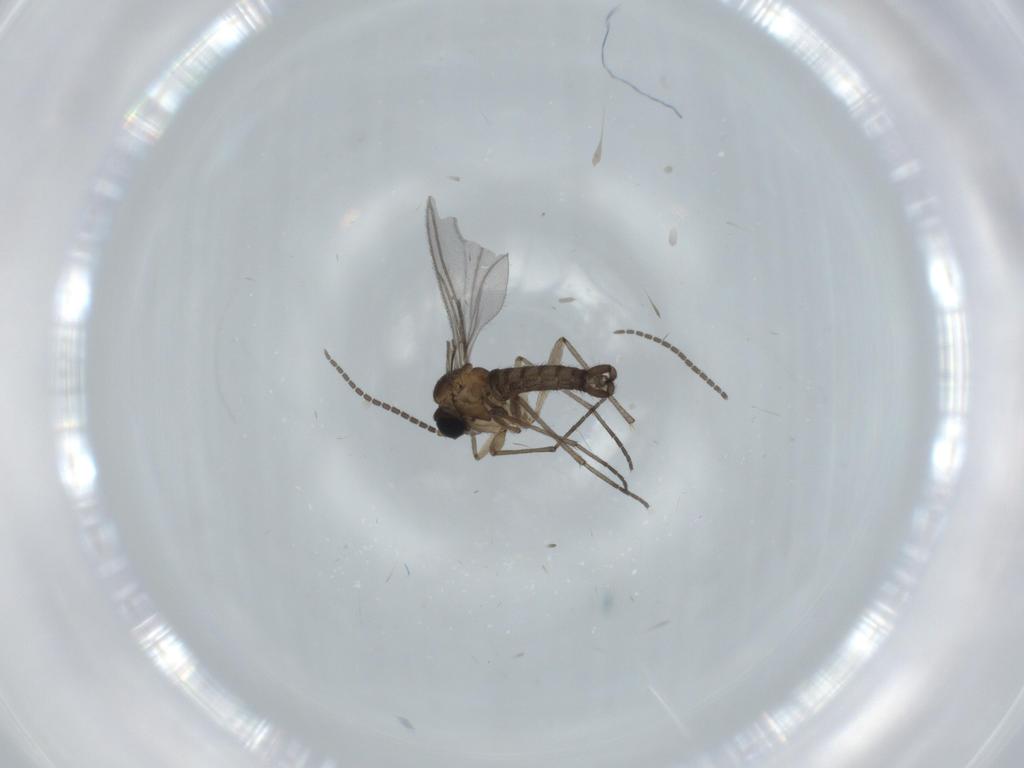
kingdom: Animalia
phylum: Arthropoda
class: Insecta
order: Diptera
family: Sciaridae
